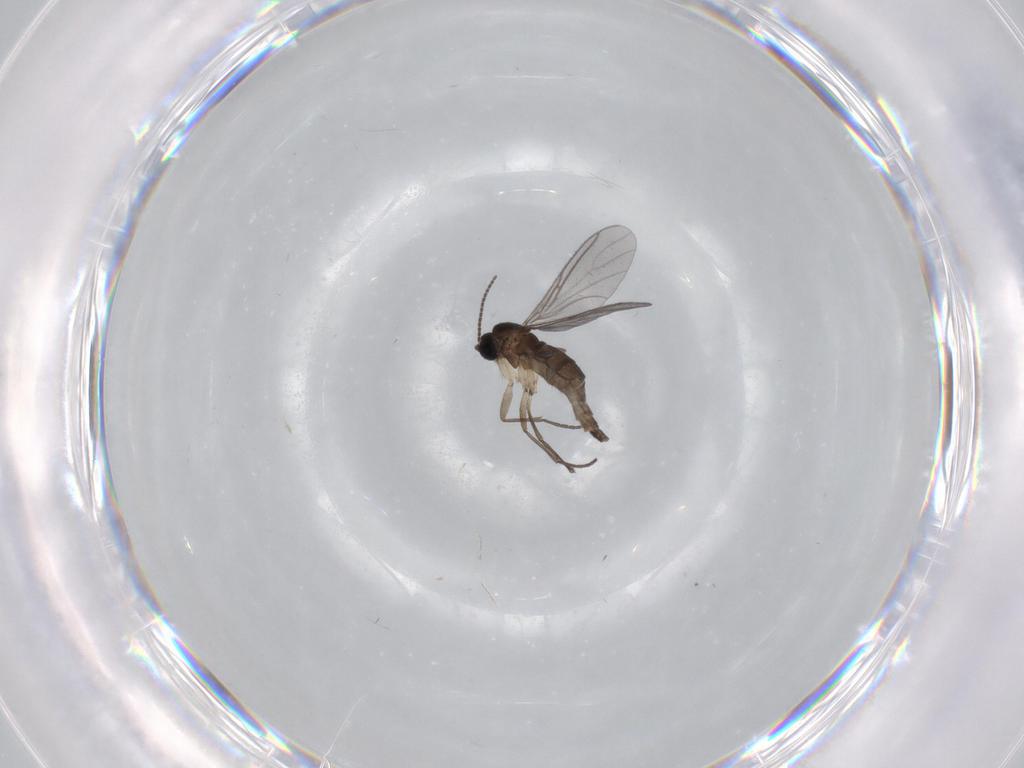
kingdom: Animalia
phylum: Arthropoda
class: Insecta
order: Diptera
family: Sciaridae
